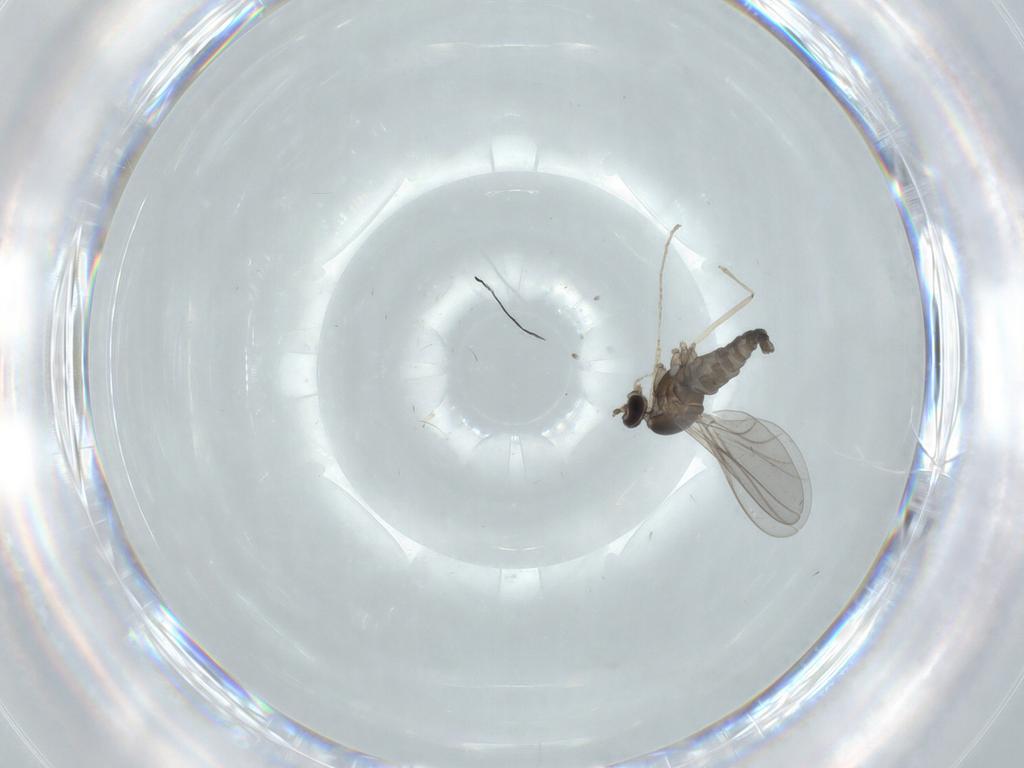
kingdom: Animalia
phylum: Arthropoda
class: Insecta
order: Diptera
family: Cecidomyiidae
